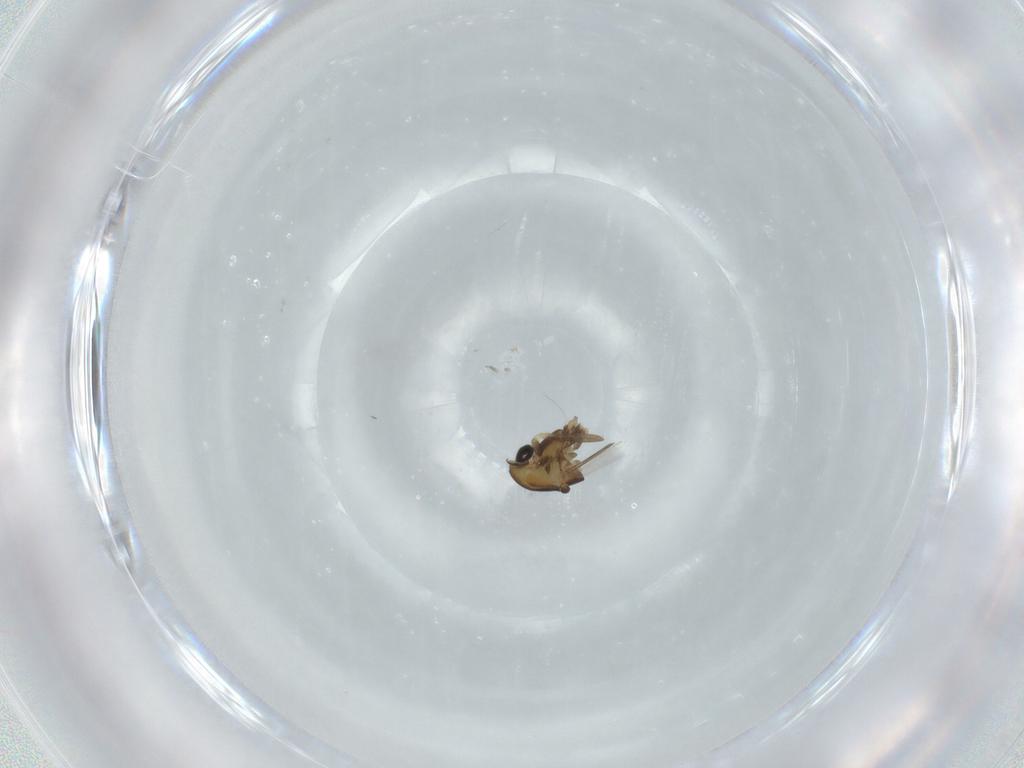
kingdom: Animalia
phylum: Arthropoda
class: Insecta
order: Diptera
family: Chironomidae
